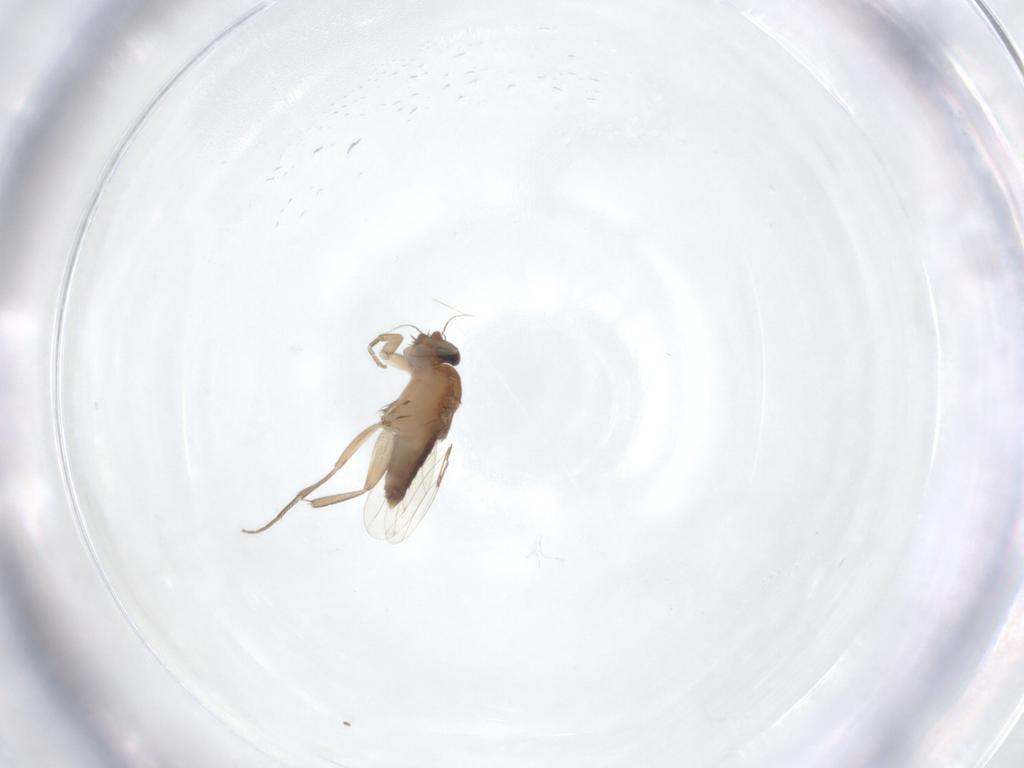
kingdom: Animalia
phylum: Arthropoda
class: Insecta
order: Diptera
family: Phoridae
